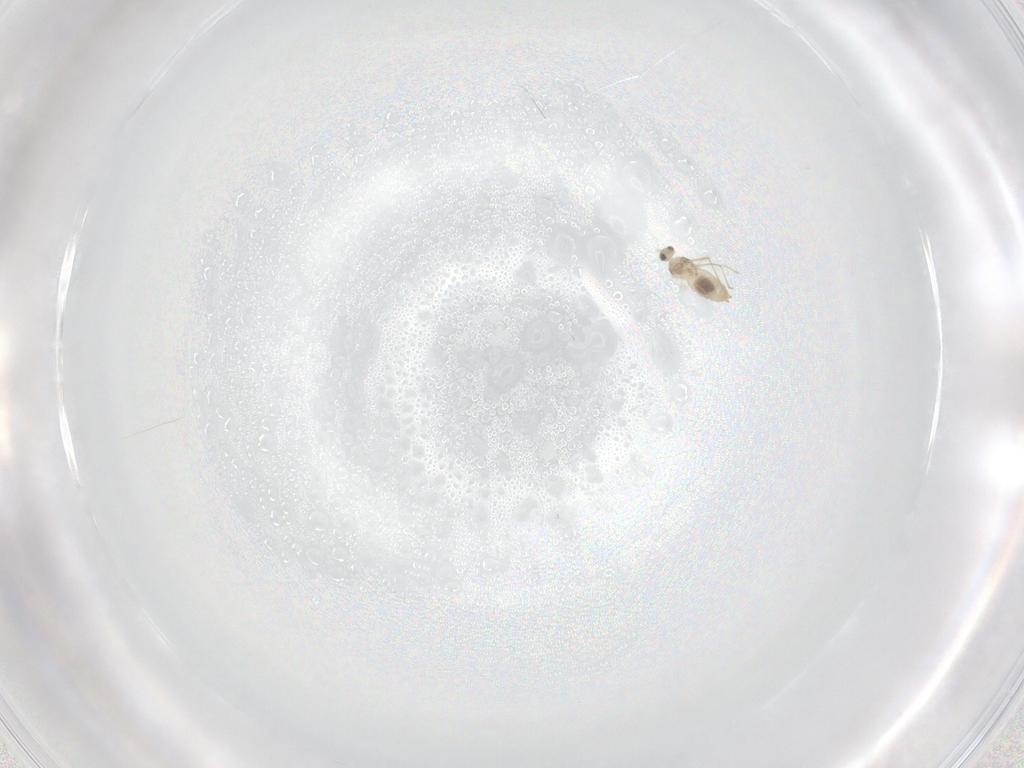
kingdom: Animalia
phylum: Arthropoda
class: Insecta
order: Diptera
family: Cecidomyiidae
